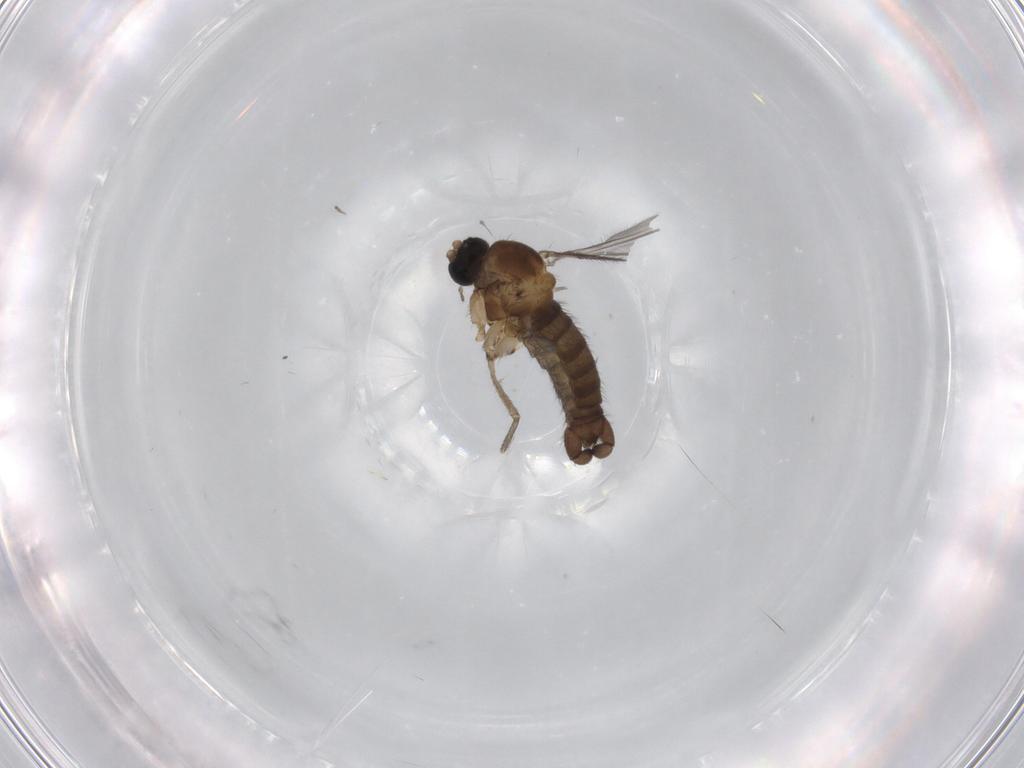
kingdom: Animalia
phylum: Arthropoda
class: Insecta
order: Diptera
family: Sciaridae
